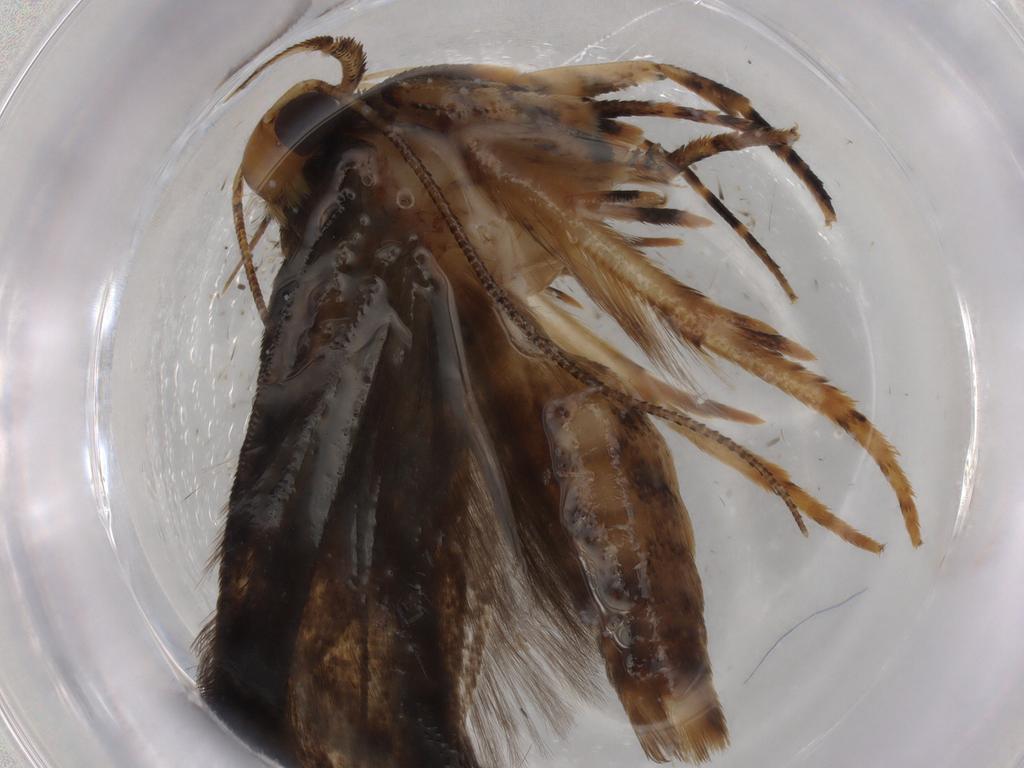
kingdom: Animalia
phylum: Arthropoda
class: Insecta
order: Lepidoptera
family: Gelechiidae
